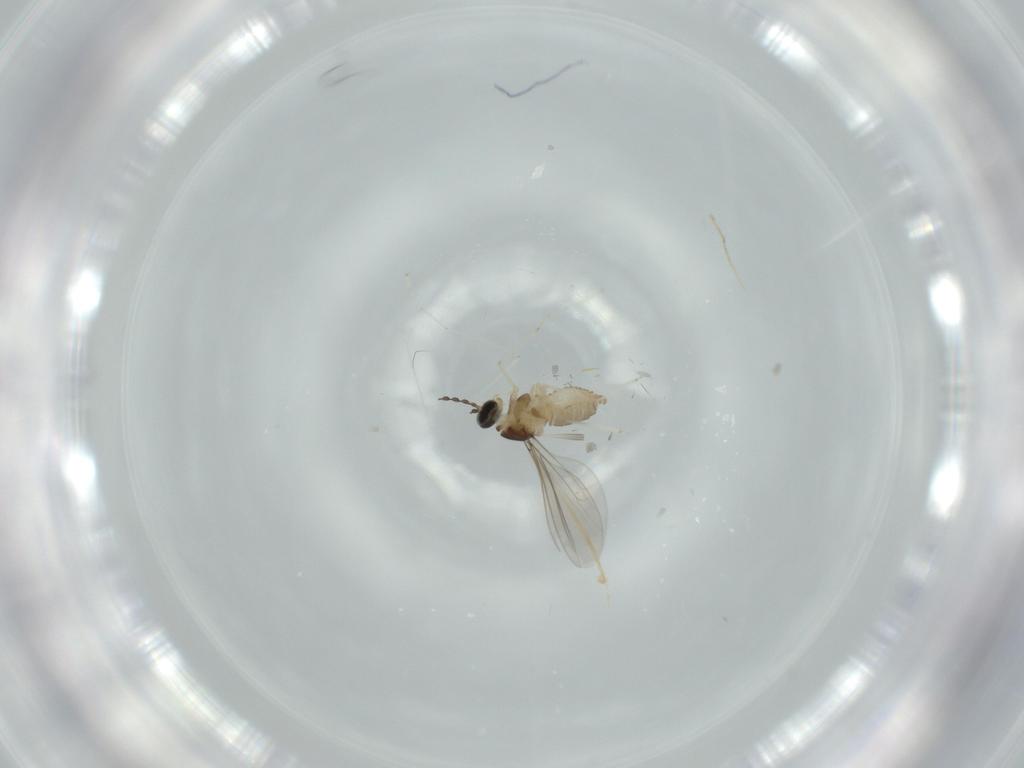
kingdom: Animalia
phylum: Arthropoda
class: Insecta
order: Diptera
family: Cecidomyiidae
